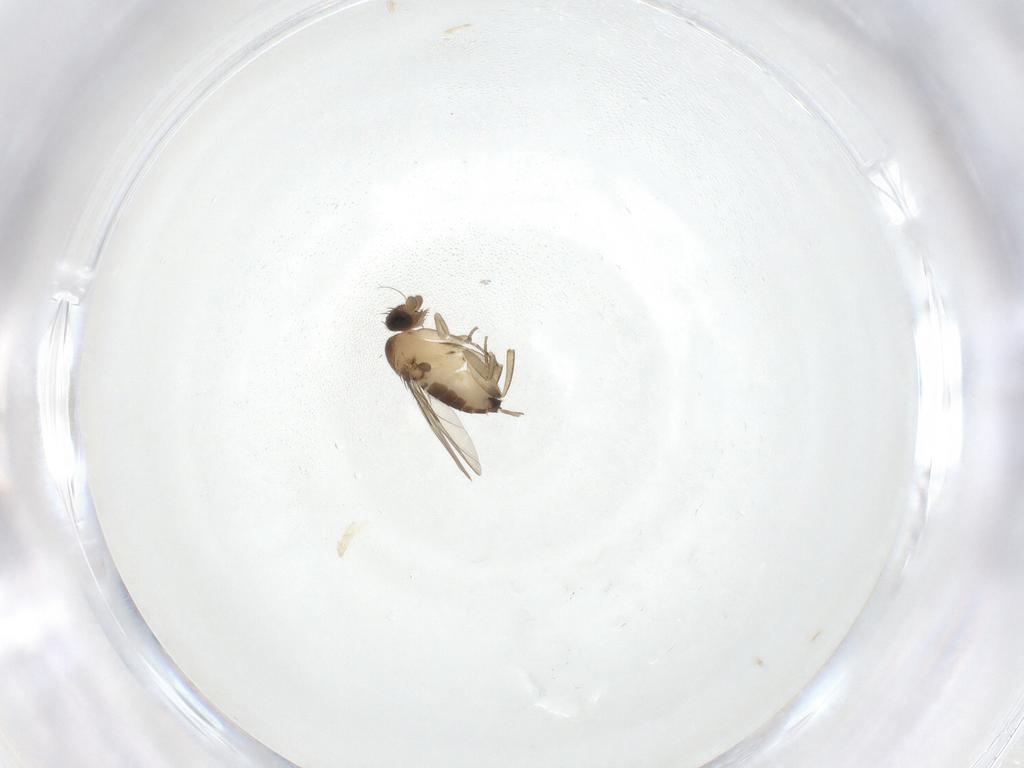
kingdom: Animalia
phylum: Arthropoda
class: Insecta
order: Diptera
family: Phoridae
